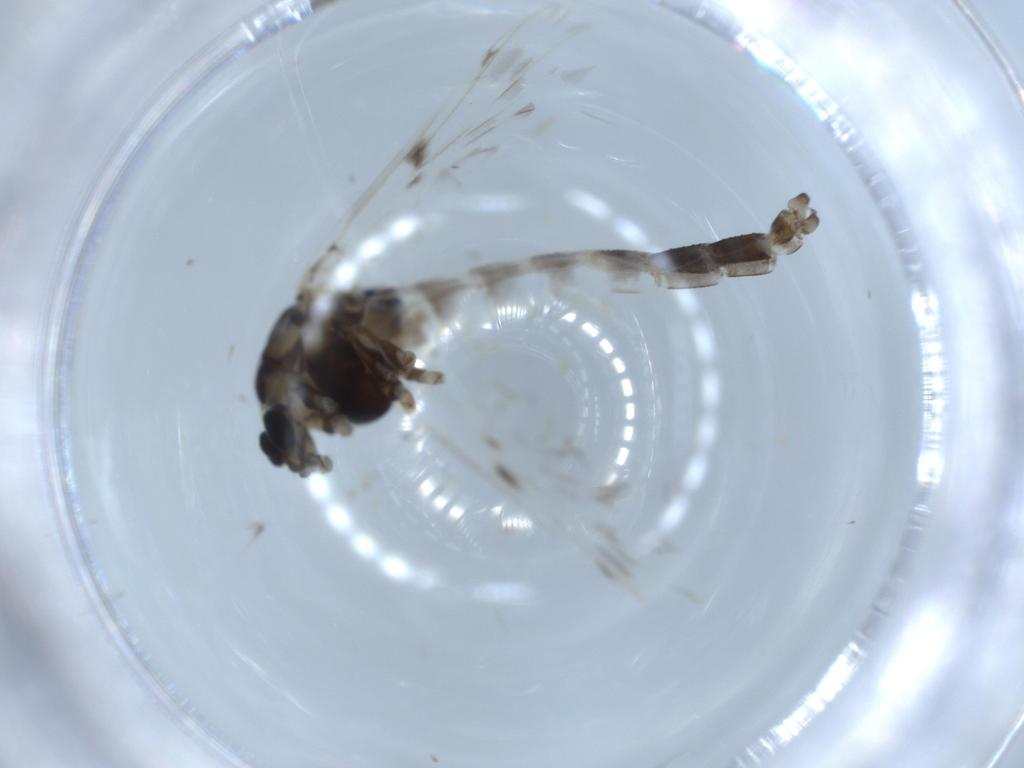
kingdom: Animalia
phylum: Arthropoda
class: Insecta
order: Diptera
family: Chironomidae
